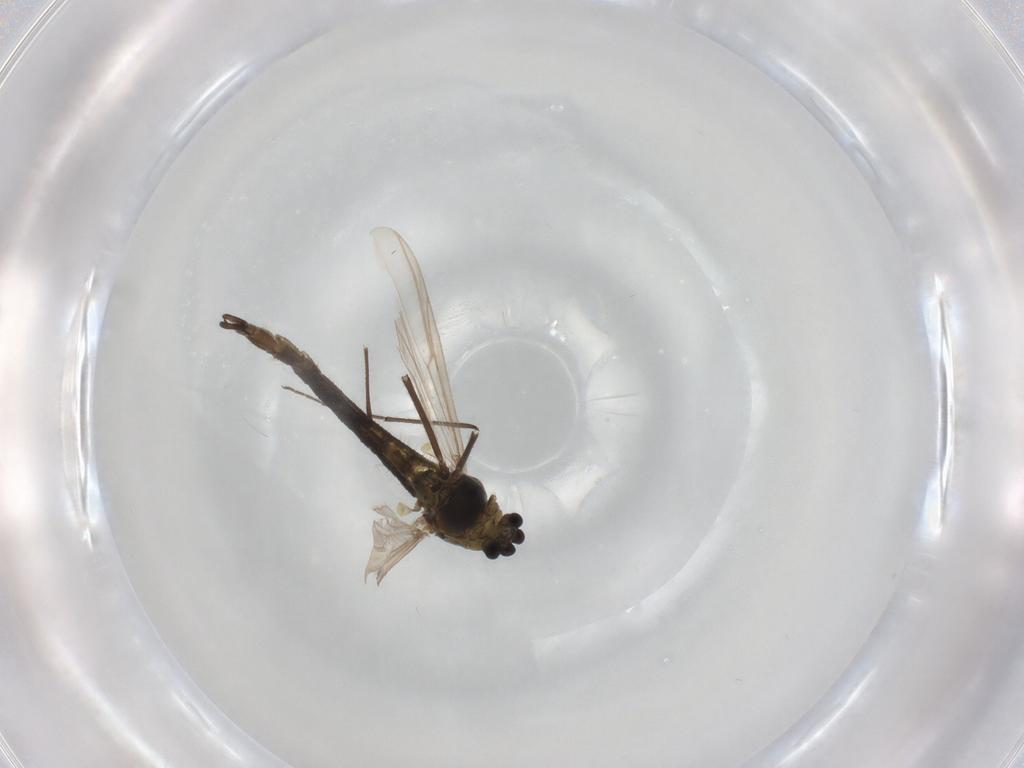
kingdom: Animalia
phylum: Arthropoda
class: Insecta
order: Diptera
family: Chironomidae
